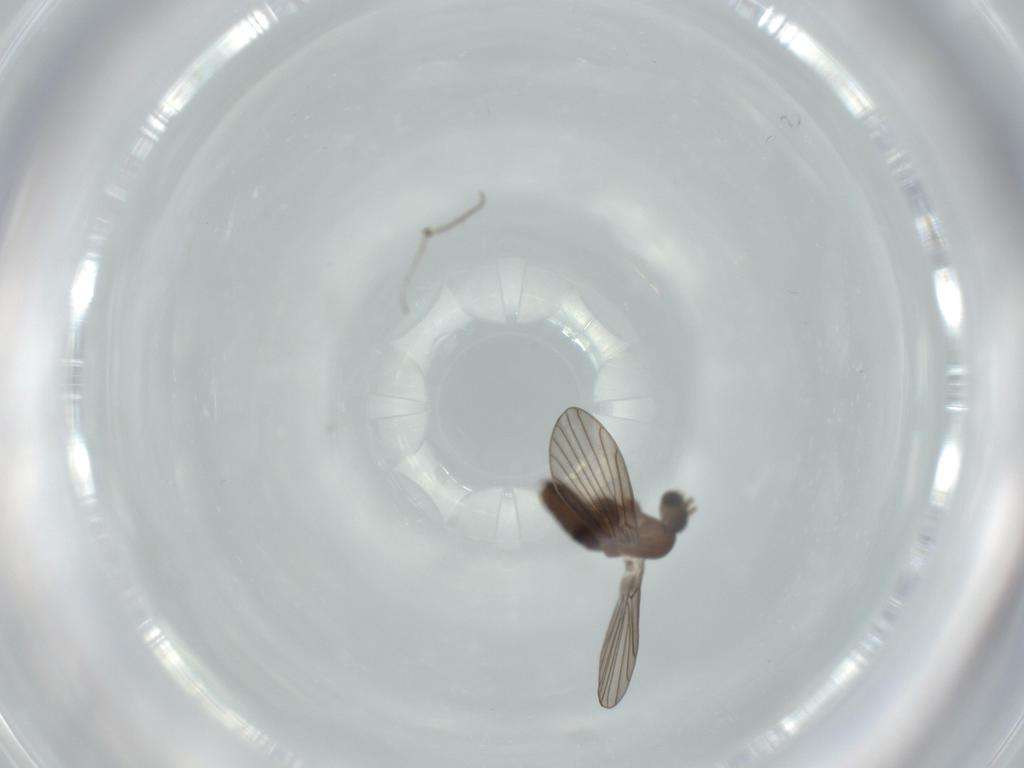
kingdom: Animalia
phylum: Arthropoda
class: Insecta
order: Diptera
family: Cecidomyiidae
